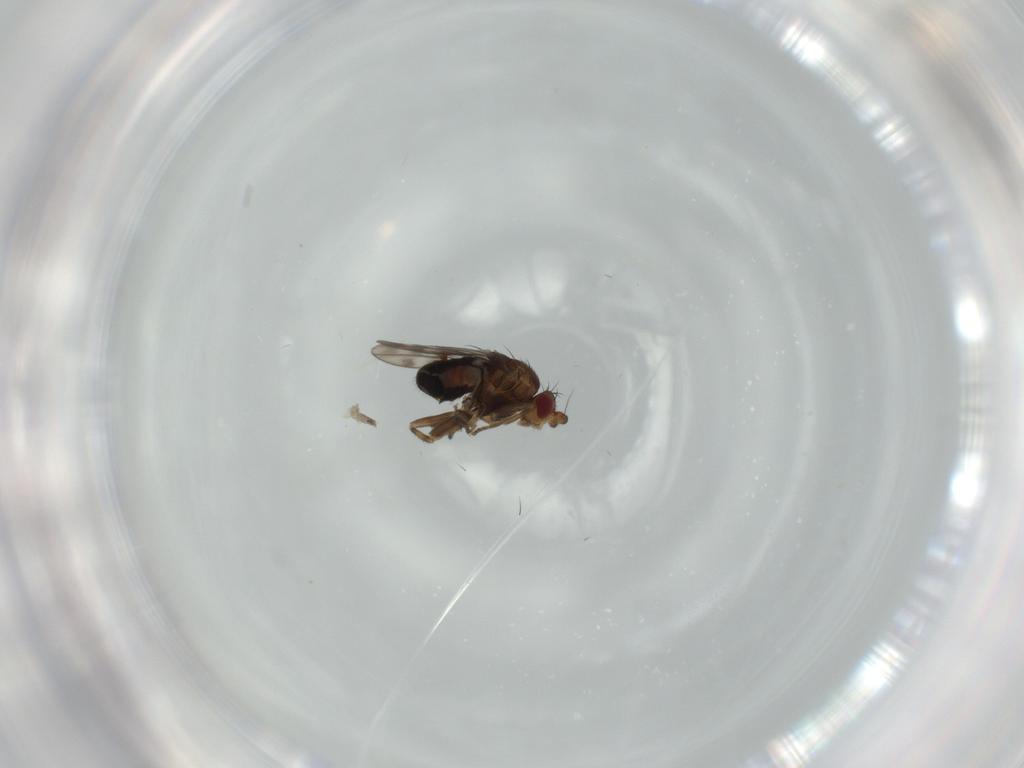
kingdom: Animalia
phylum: Arthropoda
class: Insecta
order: Diptera
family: Sphaeroceridae
